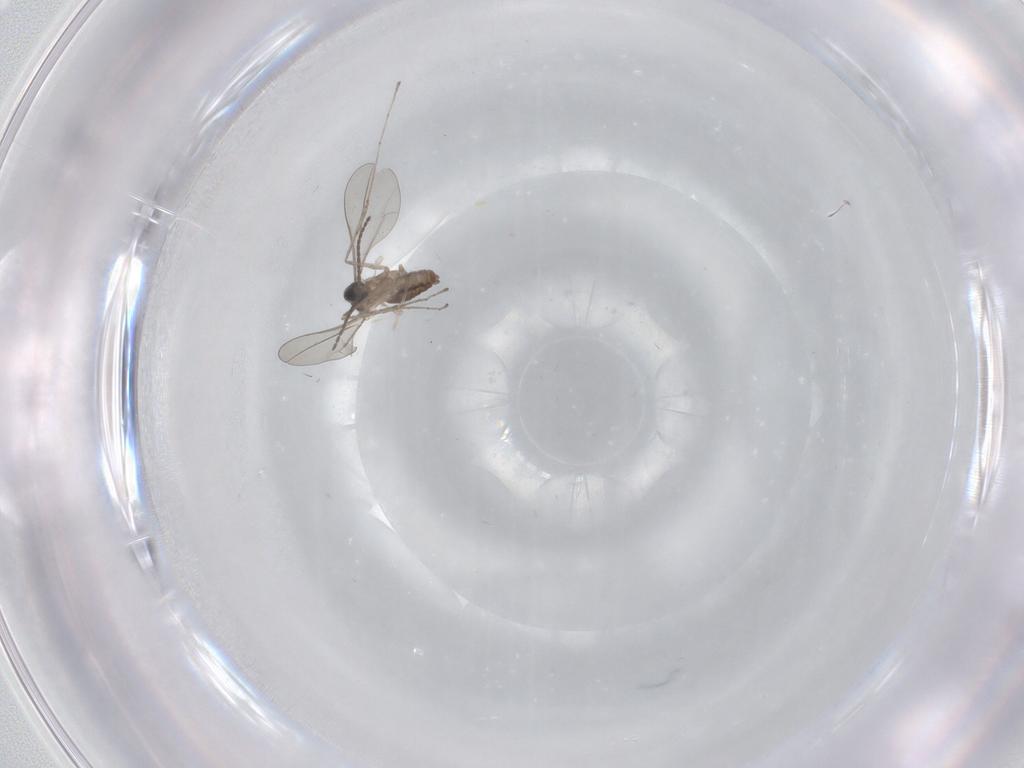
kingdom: Animalia
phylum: Arthropoda
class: Insecta
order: Diptera
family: Cecidomyiidae
